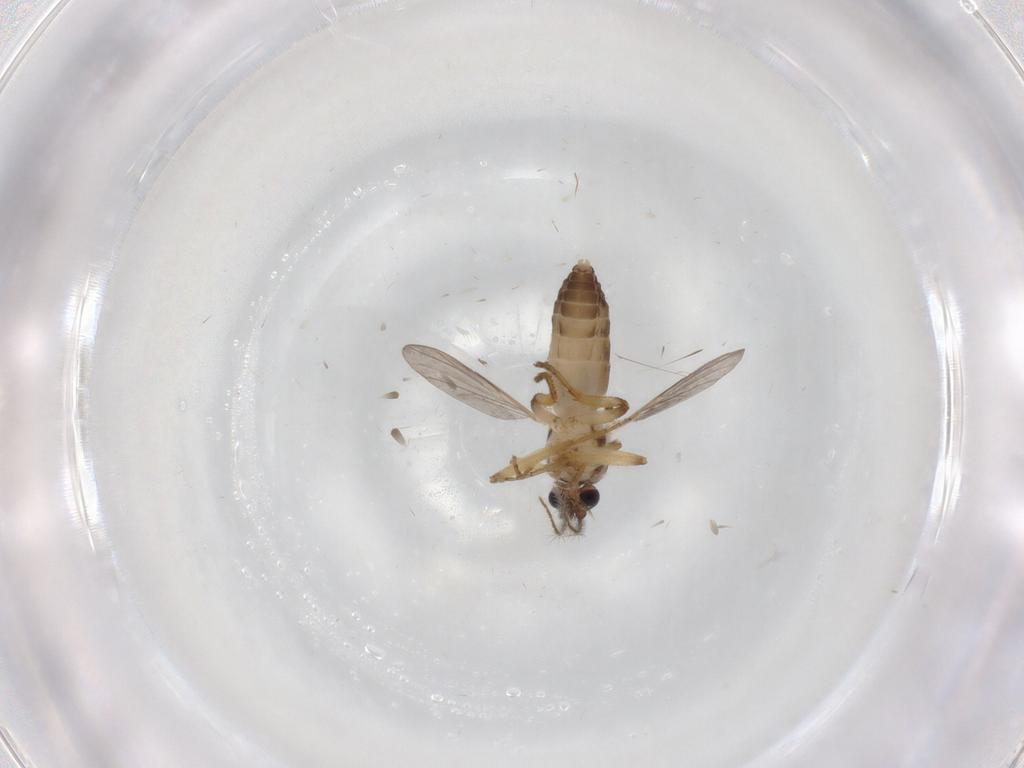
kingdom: Animalia
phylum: Arthropoda
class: Insecta
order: Diptera
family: Ceratopogonidae
